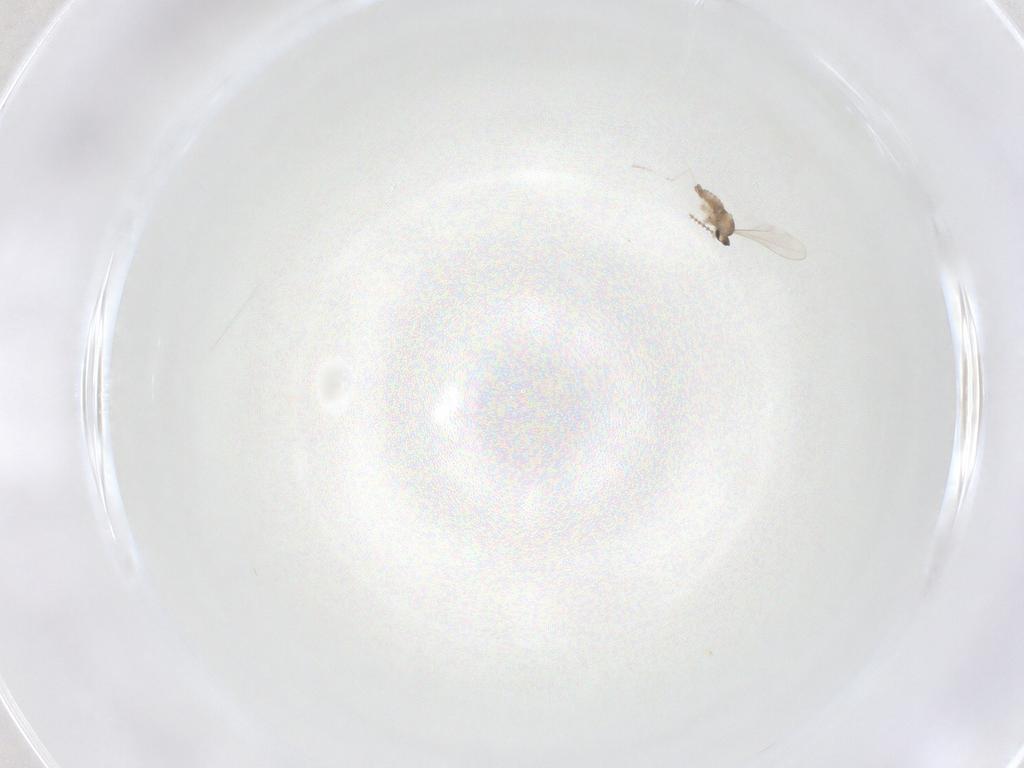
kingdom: Animalia
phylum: Arthropoda
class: Insecta
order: Diptera
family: Cecidomyiidae
